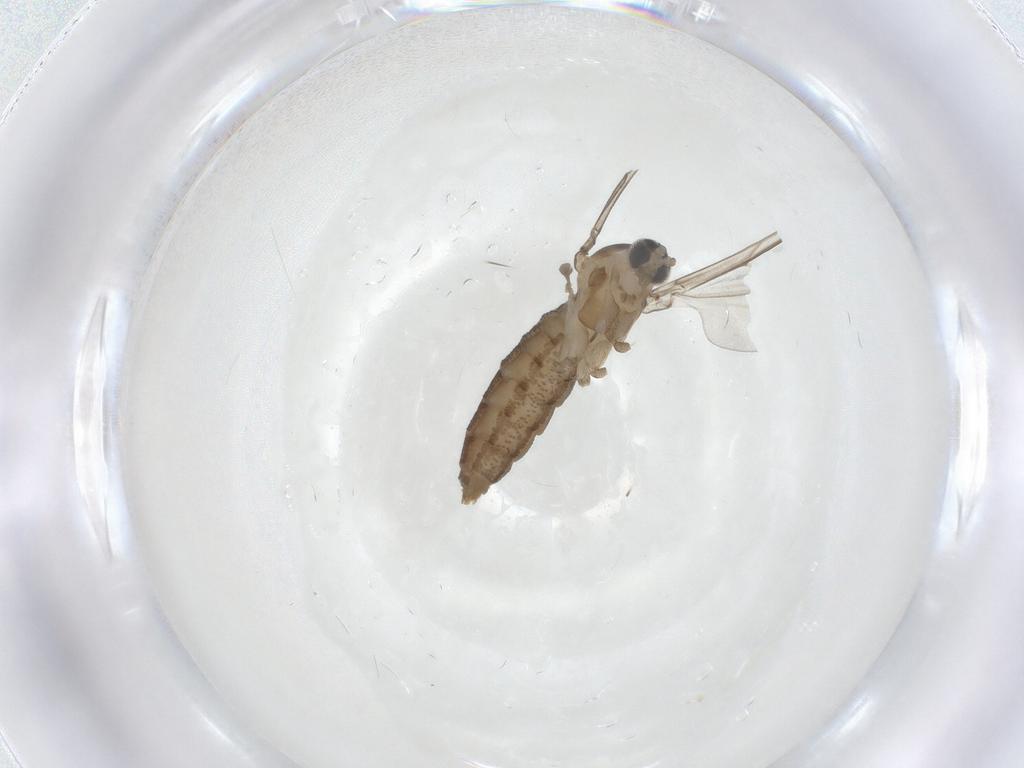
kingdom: Animalia
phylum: Arthropoda
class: Insecta
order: Diptera
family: Cecidomyiidae
